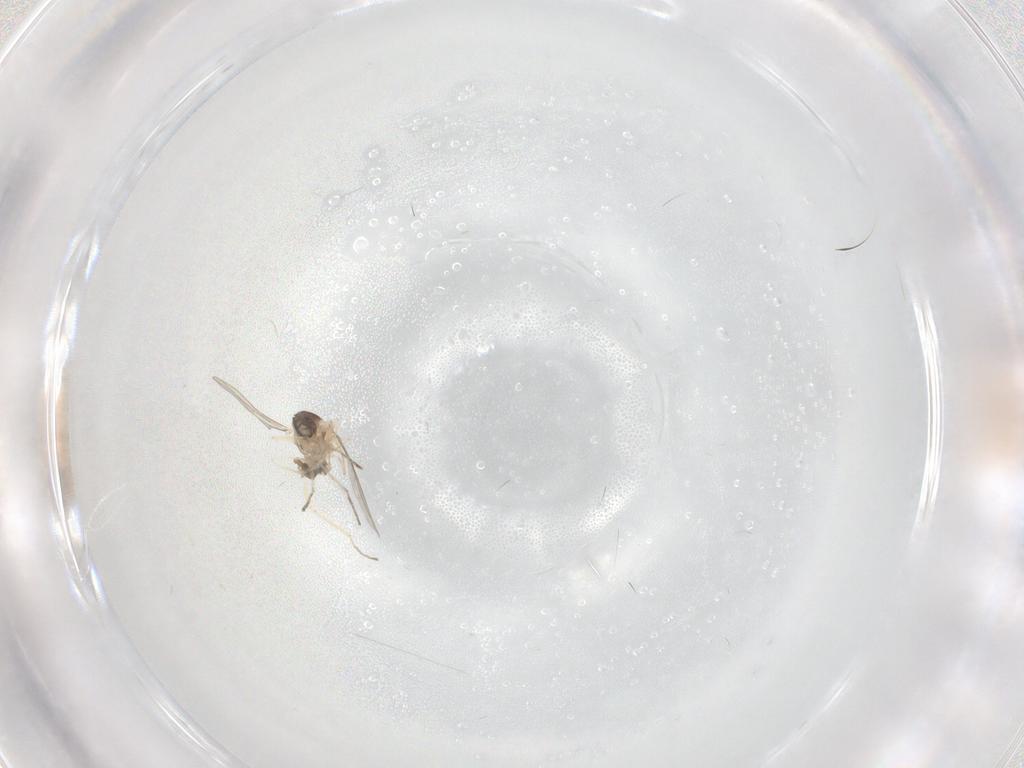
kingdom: Animalia
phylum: Arthropoda
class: Insecta
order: Diptera
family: Cecidomyiidae
